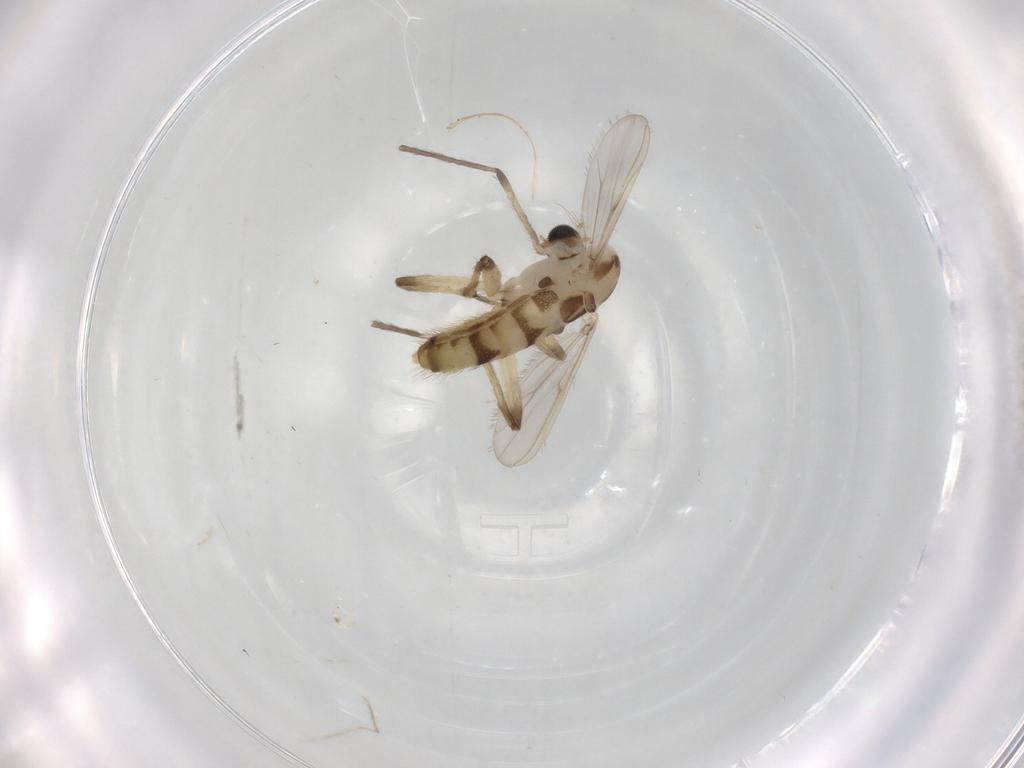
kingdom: Animalia
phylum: Arthropoda
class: Insecta
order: Diptera
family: Chironomidae
